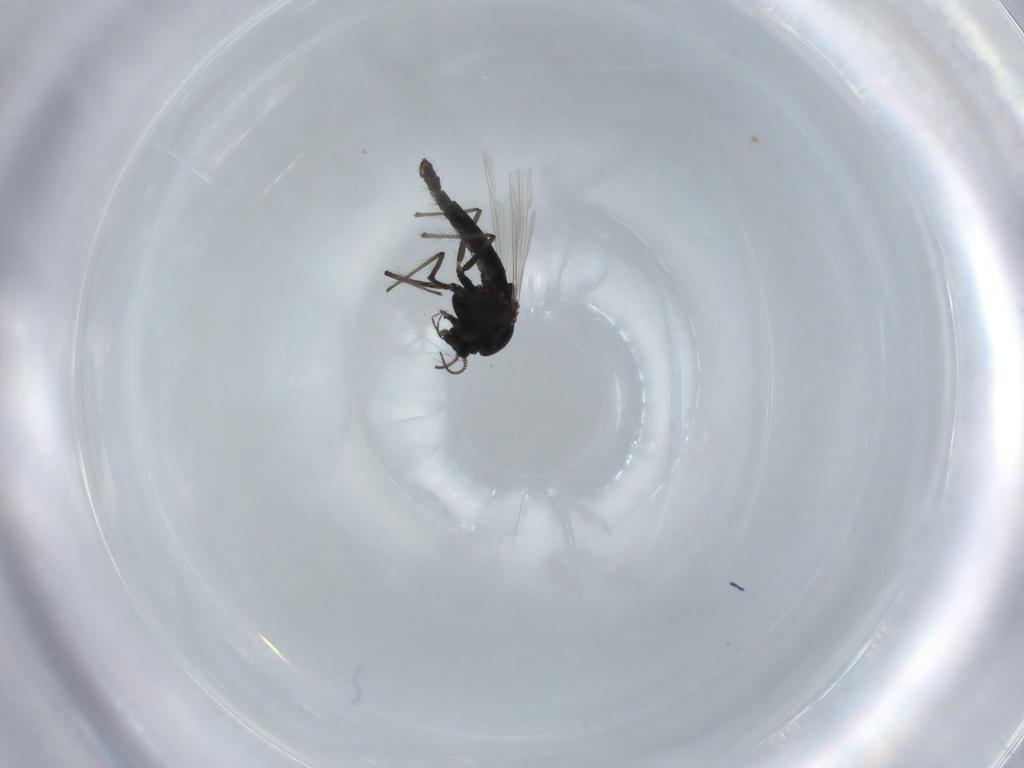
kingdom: Animalia
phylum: Arthropoda
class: Insecta
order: Diptera
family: Chironomidae
